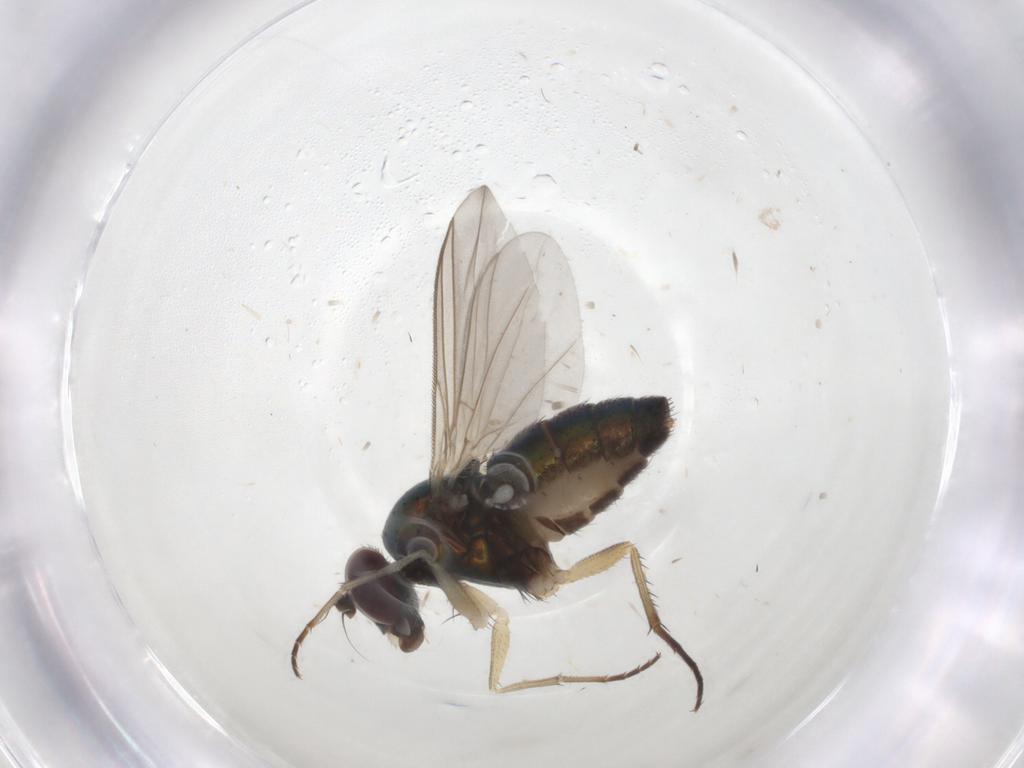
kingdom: Animalia
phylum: Arthropoda
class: Insecta
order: Diptera
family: Dolichopodidae
